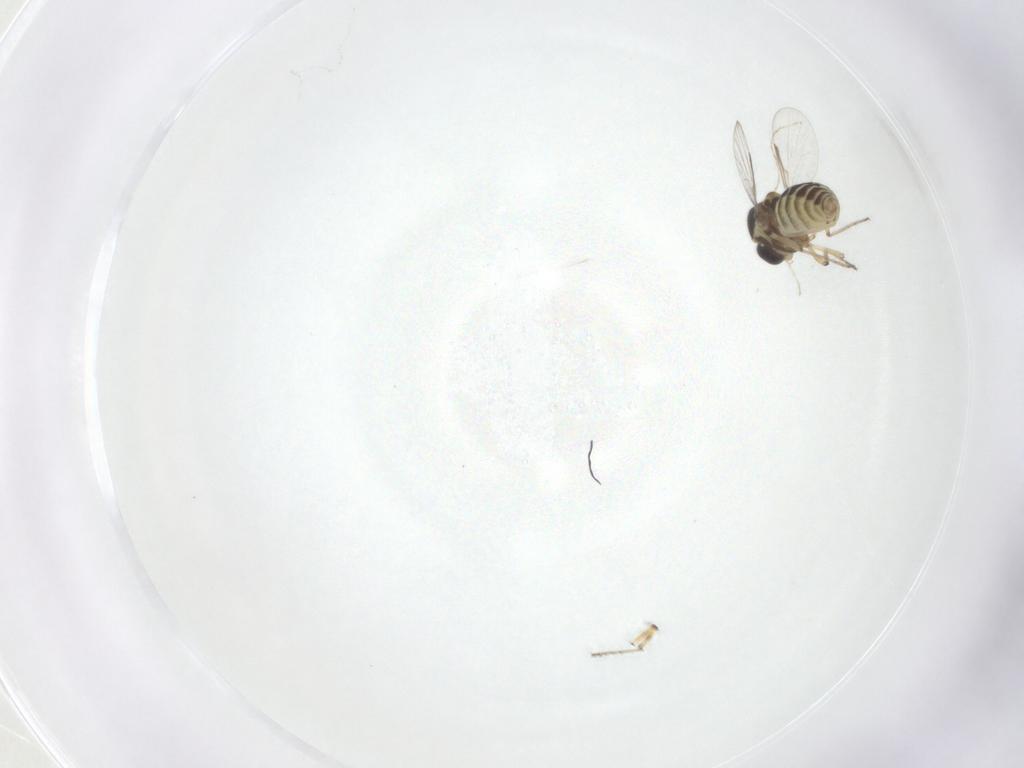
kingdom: Animalia
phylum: Arthropoda
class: Insecta
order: Diptera
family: Ceratopogonidae
